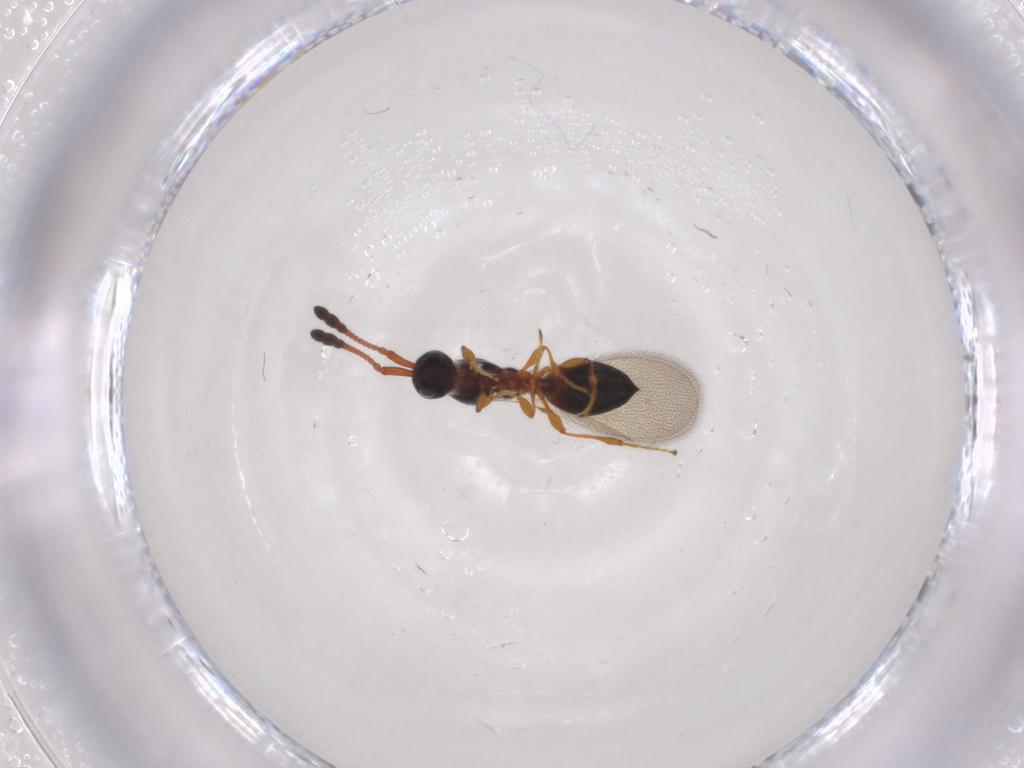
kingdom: Animalia
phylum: Arthropoda
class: Insecta
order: Hymenoptera
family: Diapriidae
